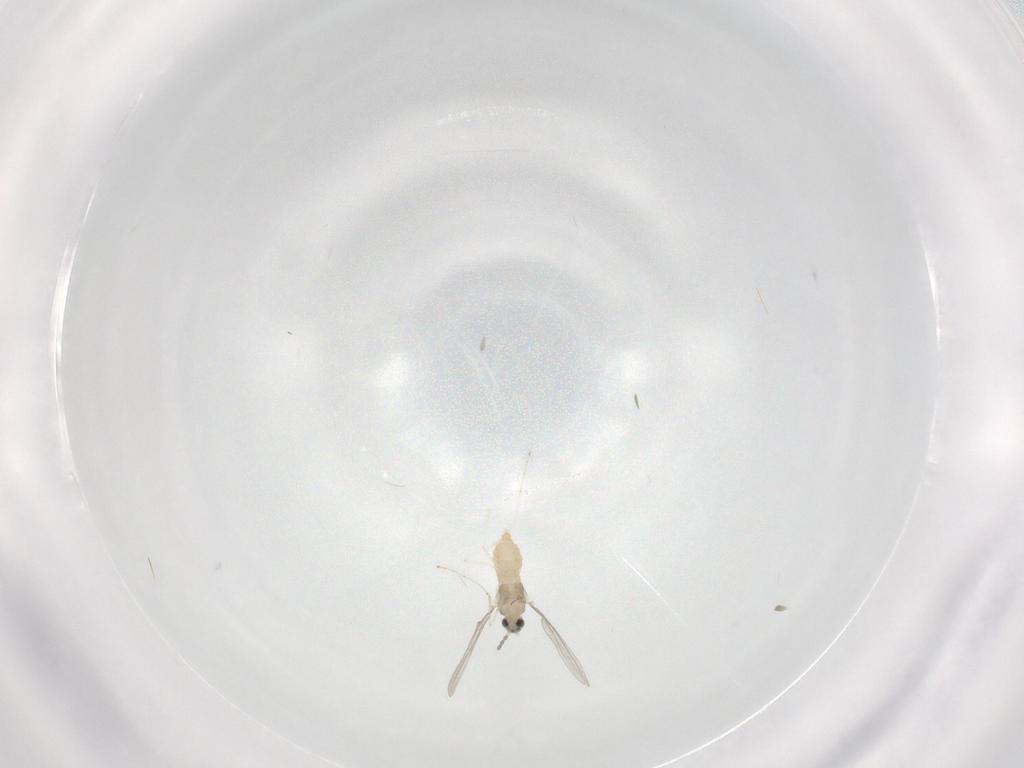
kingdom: Animalia
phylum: Arthropoda
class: Insecta
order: Diptera
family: Cecidomyiidae
